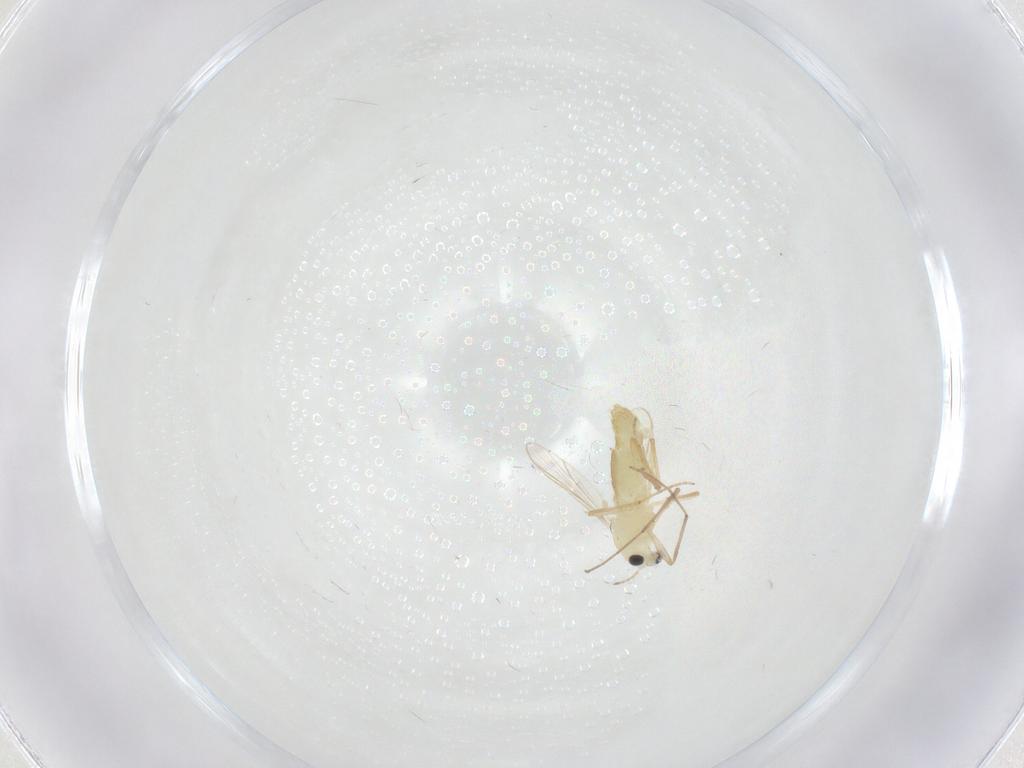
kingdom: Animalia
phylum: Arthropoda
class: Insecta
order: Diptera
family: Chironomidae
